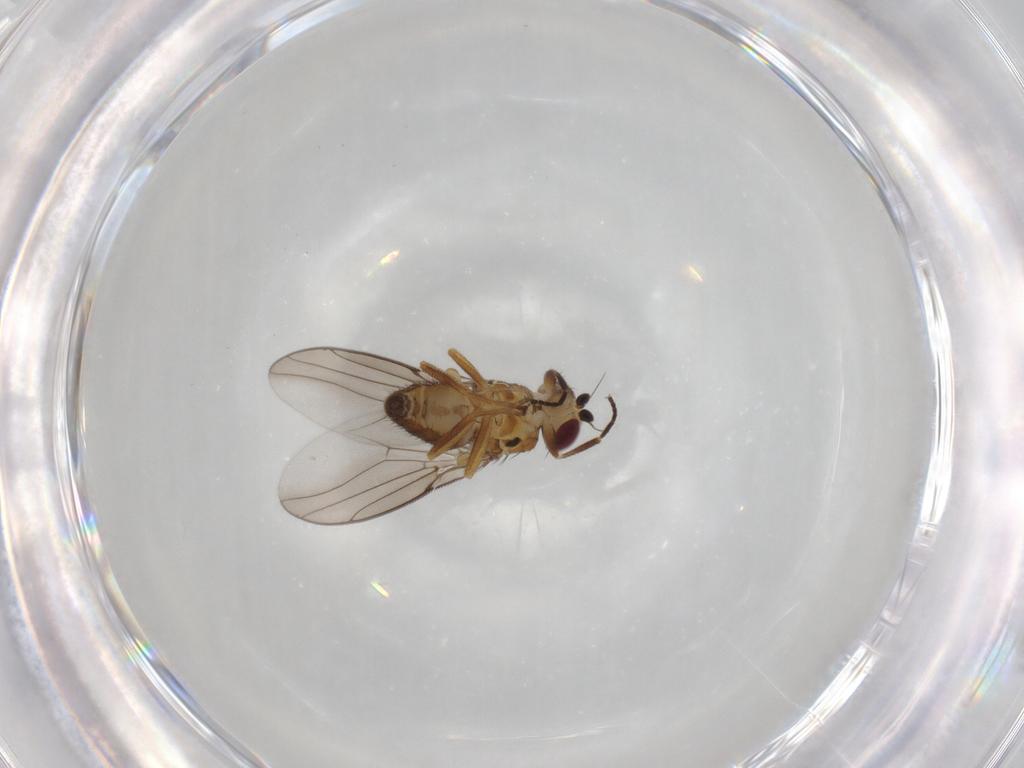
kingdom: Animalia
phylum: Arthropoda
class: Insecta
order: Diptera
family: Chloropidae
